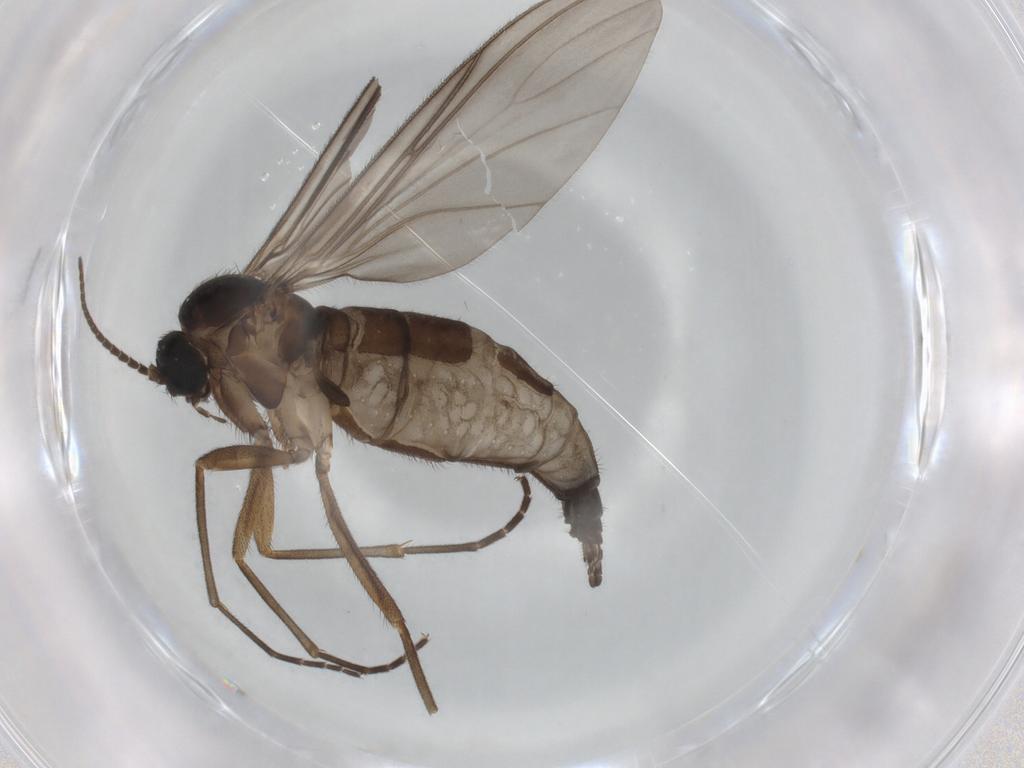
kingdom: Animalia
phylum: Arthropoda
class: Insecta
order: Diptera
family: Sciaridae
